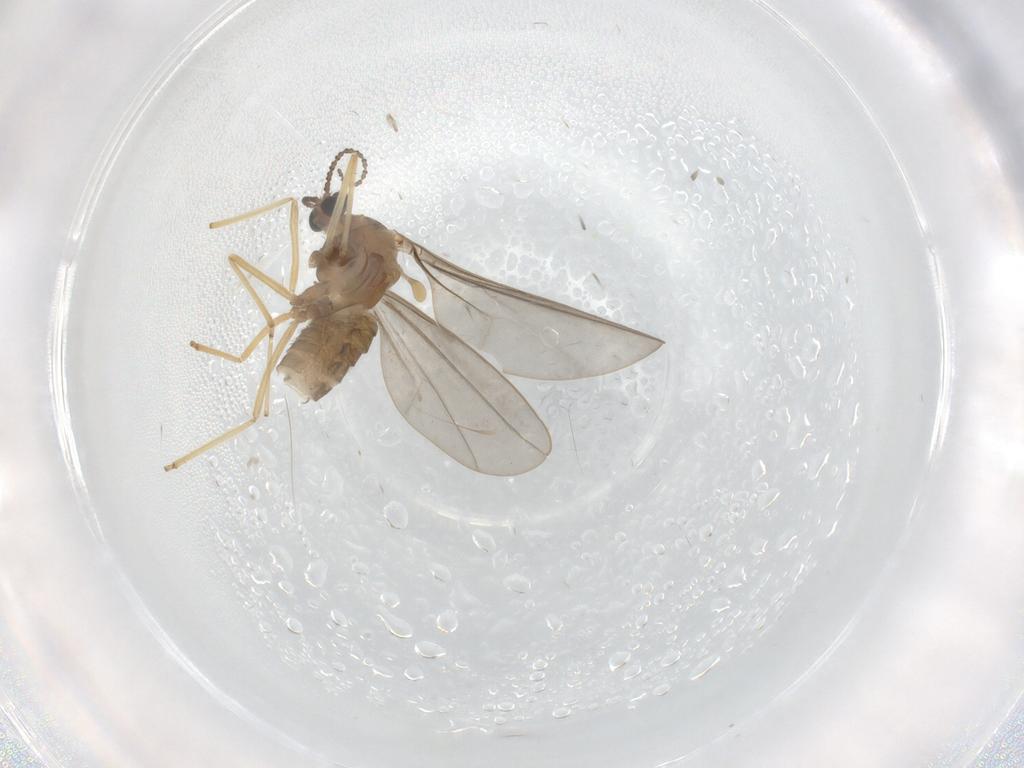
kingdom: Animalia
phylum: Arthropoda
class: Insecta
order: Diptera
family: Cecidomyiidae
